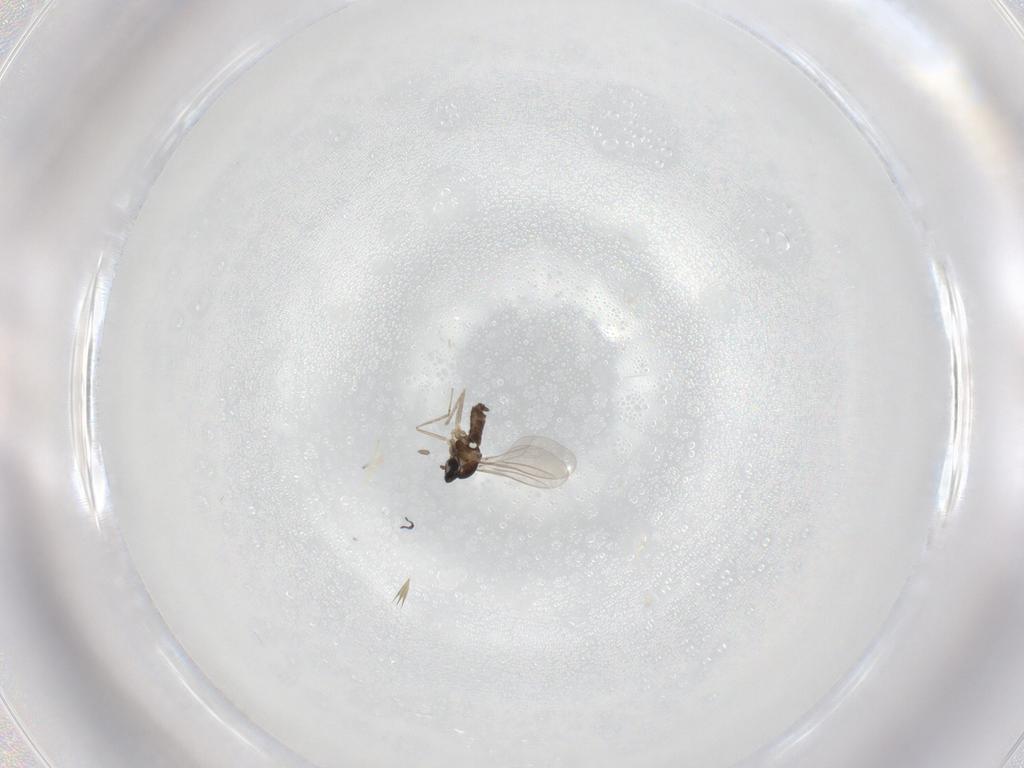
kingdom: Animalia
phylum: Arthropoda
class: Insecta
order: Diptera
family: Cecidomyiidae
